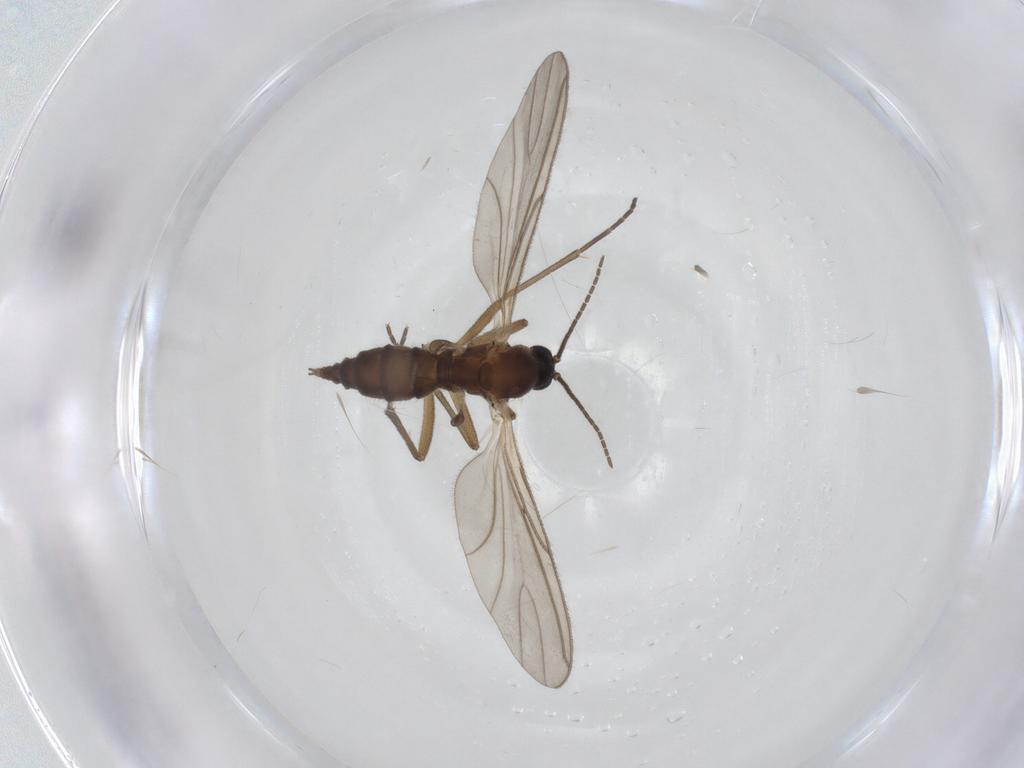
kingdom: Animalia
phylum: Arthropoda
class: Insecta
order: Diptera
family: Sciaridae
